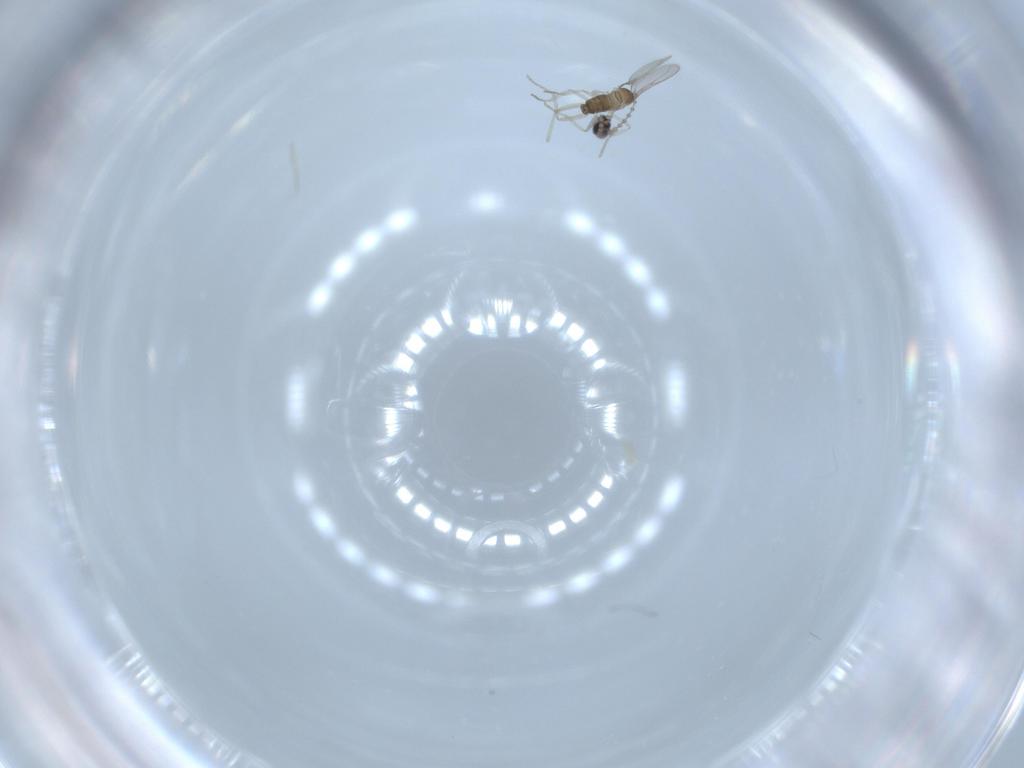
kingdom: Animalia
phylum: Arthropoda
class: Insecta
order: Diptera
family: Cecidomyiidae
